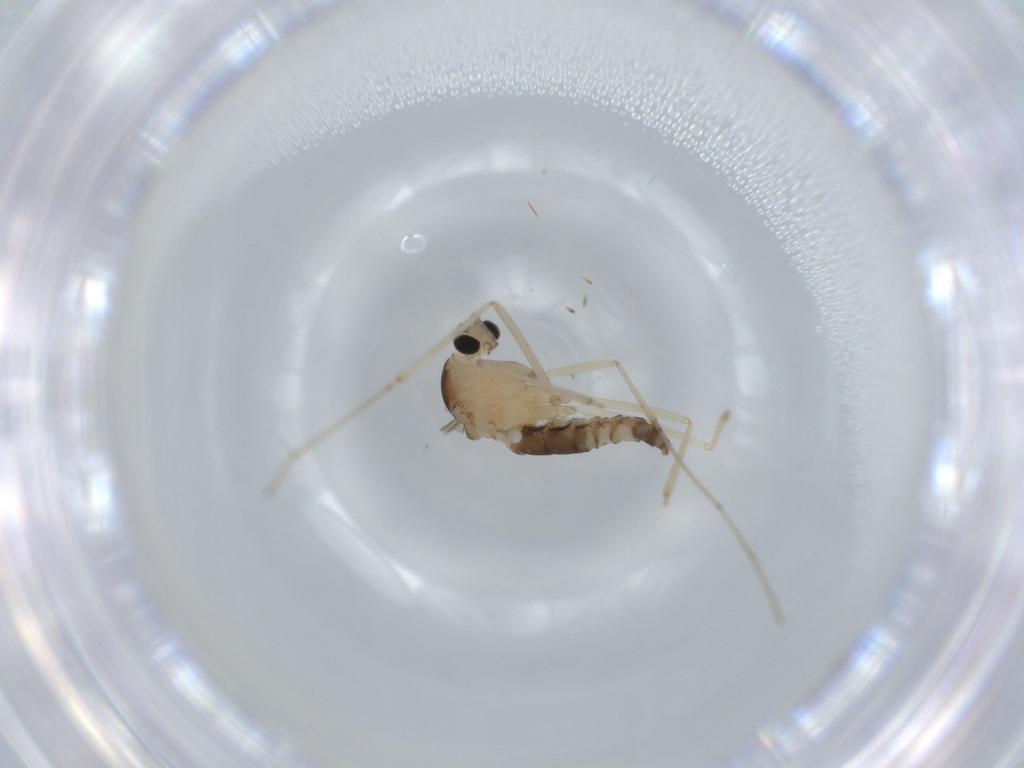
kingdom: Animalia
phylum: Arthropoda
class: Insecta
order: Diptera
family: Cecidomyiidae
